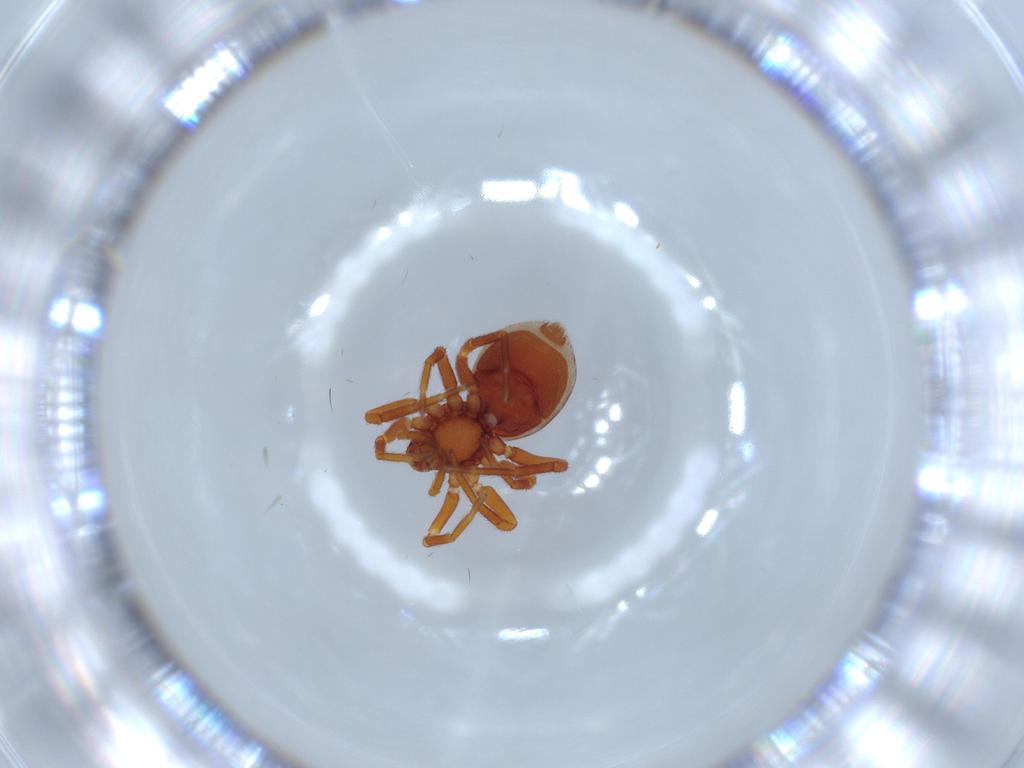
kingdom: Animalia
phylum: Arthropoda
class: Arachnida
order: Araneae
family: Oonopidae
